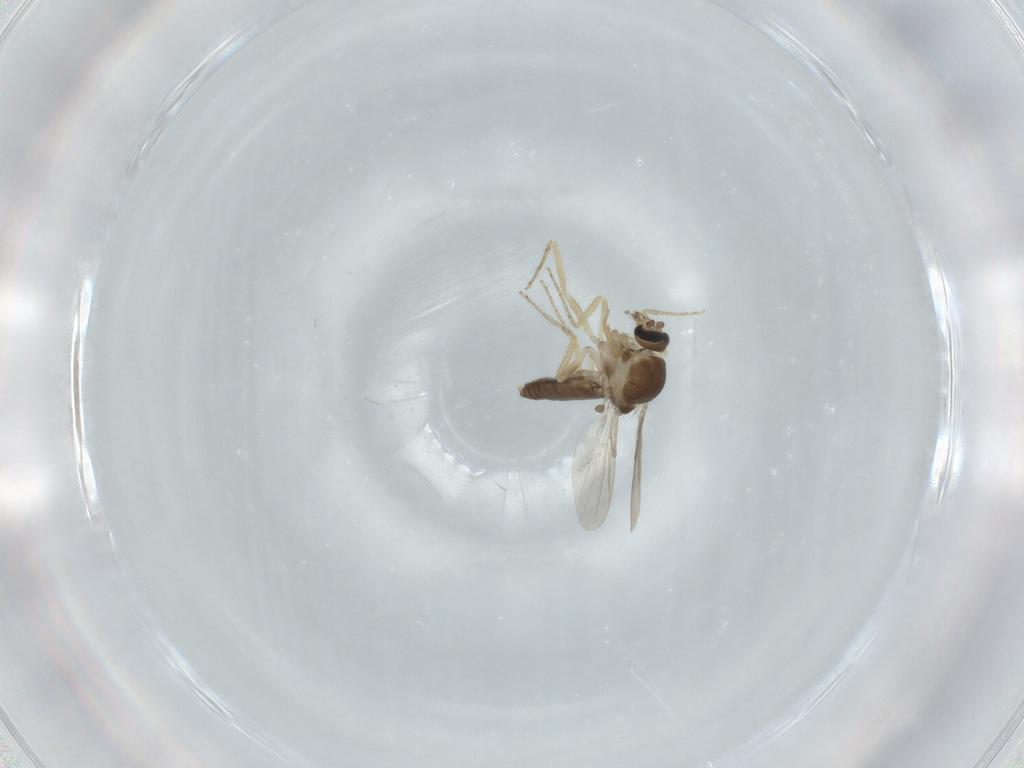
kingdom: Animalia
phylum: Arthropoda
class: Insecta
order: Diptera
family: Ceratopogonidae
